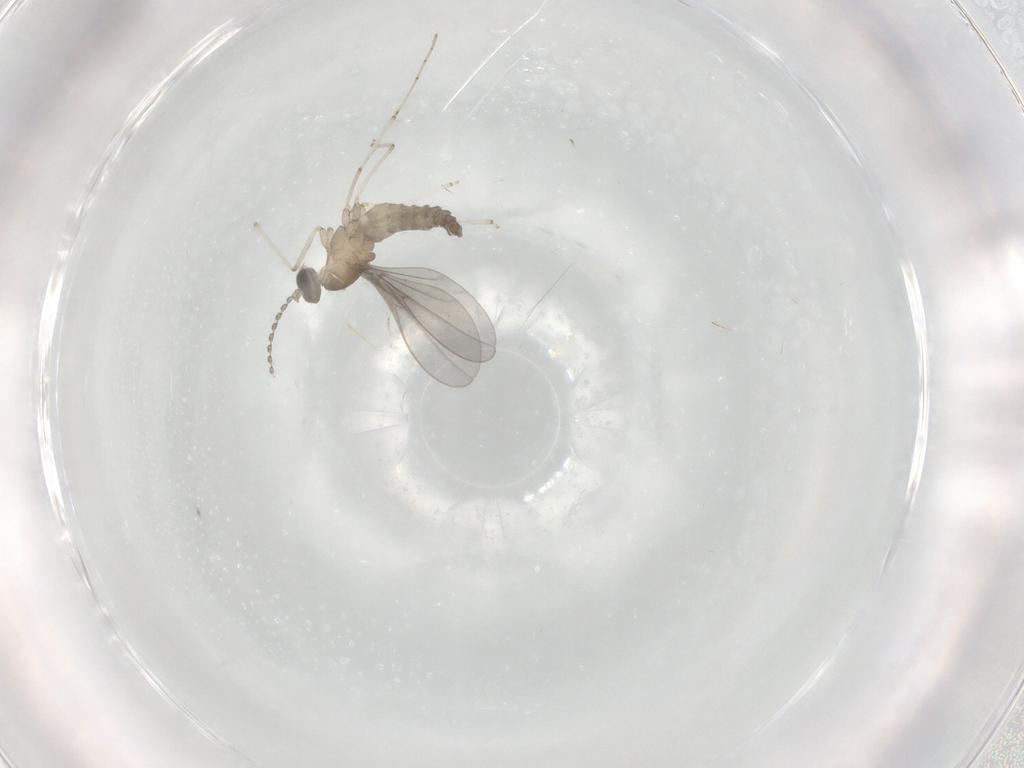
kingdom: Animalia
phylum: Arthropoda
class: Insecta
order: Diptera
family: Cecidomyiidae
